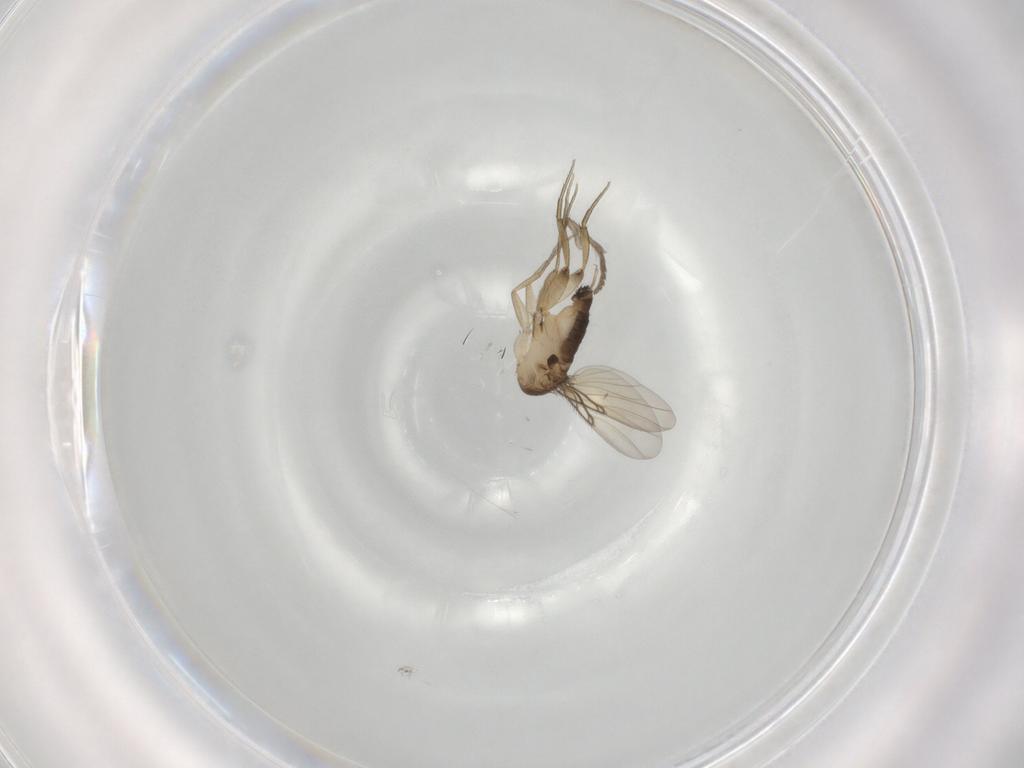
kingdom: Animalia
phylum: Arthropoda
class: Insecta
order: Diptera
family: Phoridae
